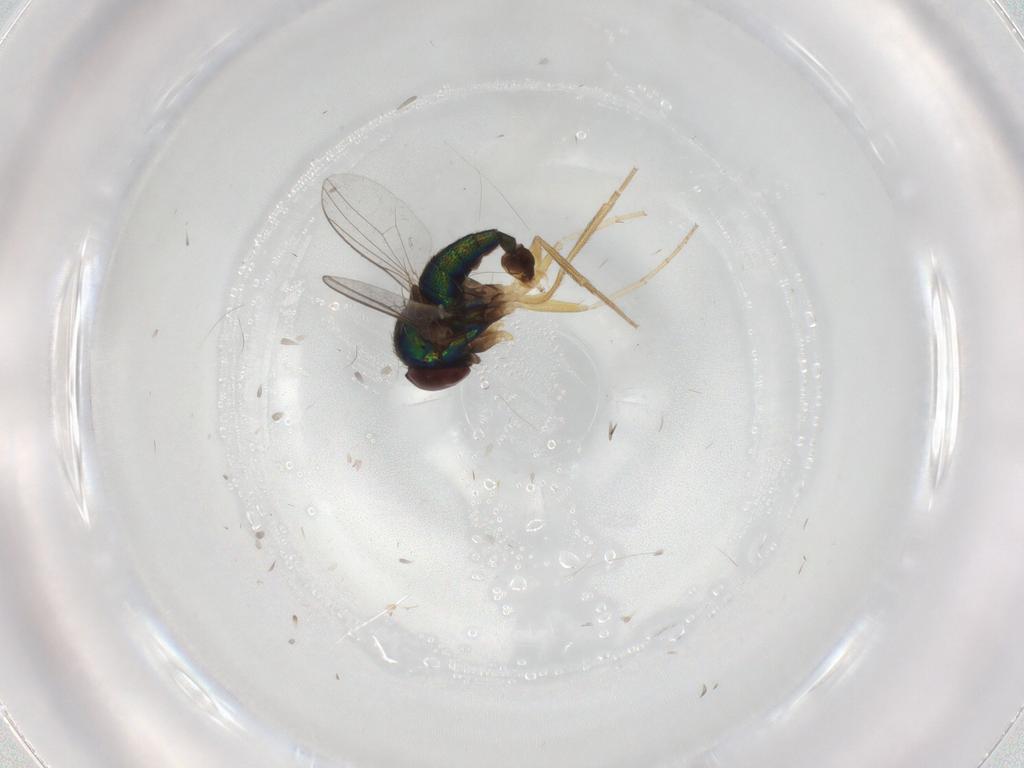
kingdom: Animalia
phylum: Arthropoda
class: Insecta
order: Diptera
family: Dolichopodidae
